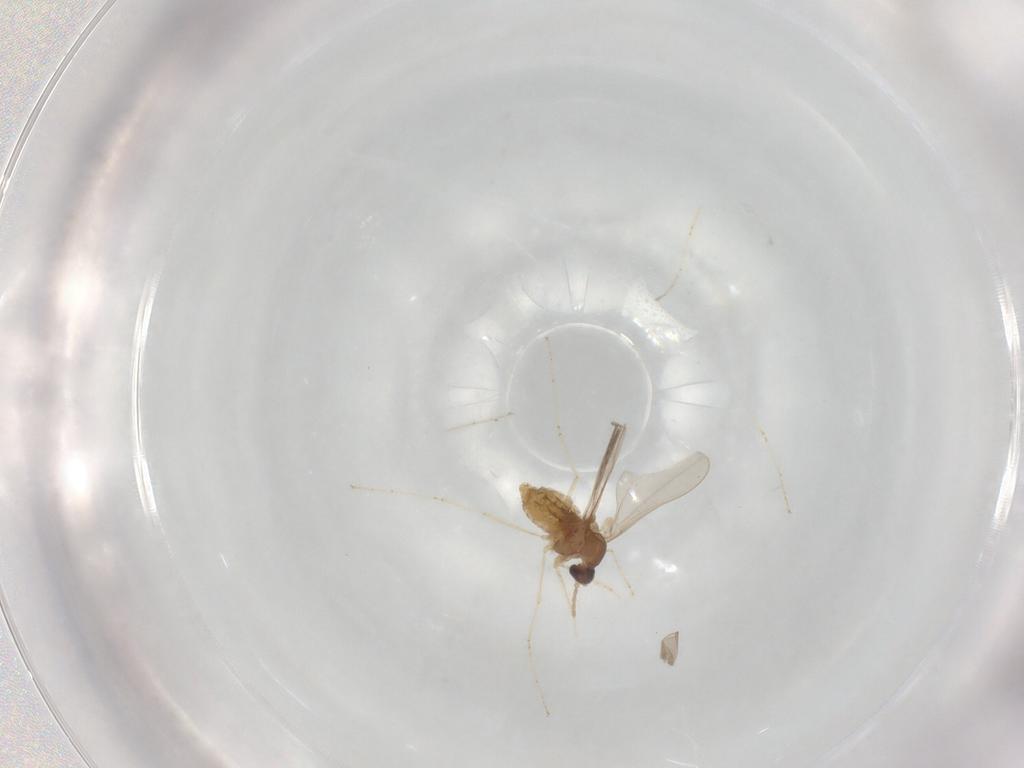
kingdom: Animalia
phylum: Arthropoda
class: Insecta
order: Diptera
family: Cecidomyiidae
